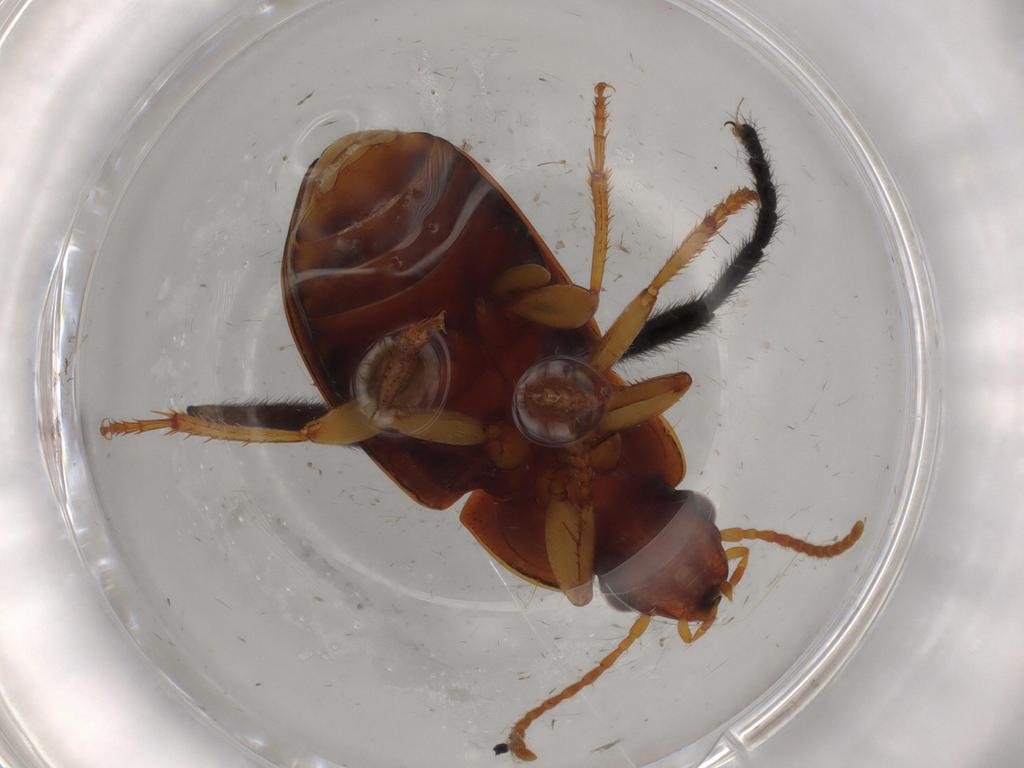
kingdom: Animalia
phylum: Arthropoda
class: Insecta
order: Coleoptera
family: Carabidae
